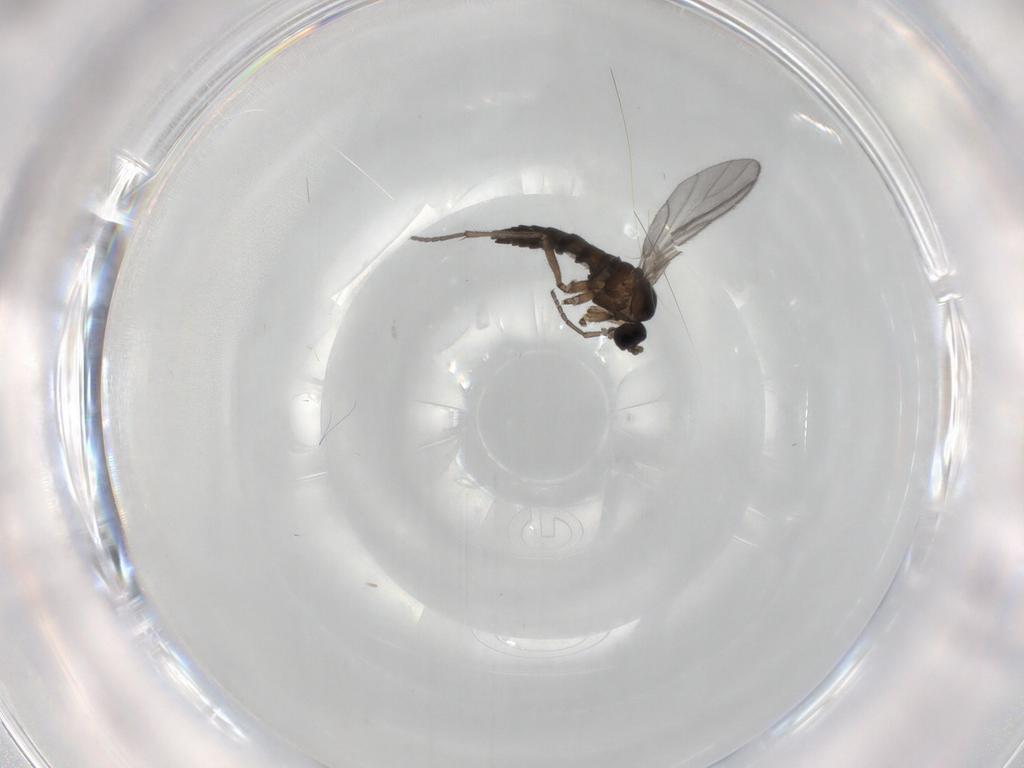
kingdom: Animalia
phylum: Arthropoda
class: Insecta
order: Diptera
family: Sciaridae
